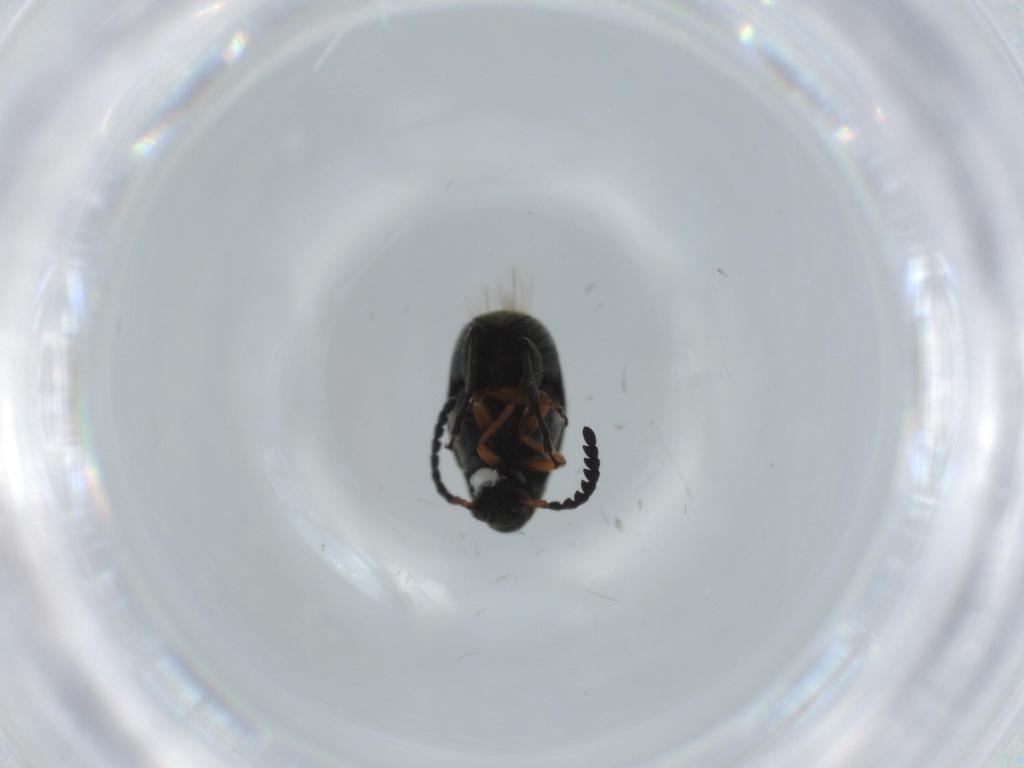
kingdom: Animalia
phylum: Arthropoda
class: Insecta
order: Coleoptera
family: Chrysomelidae
